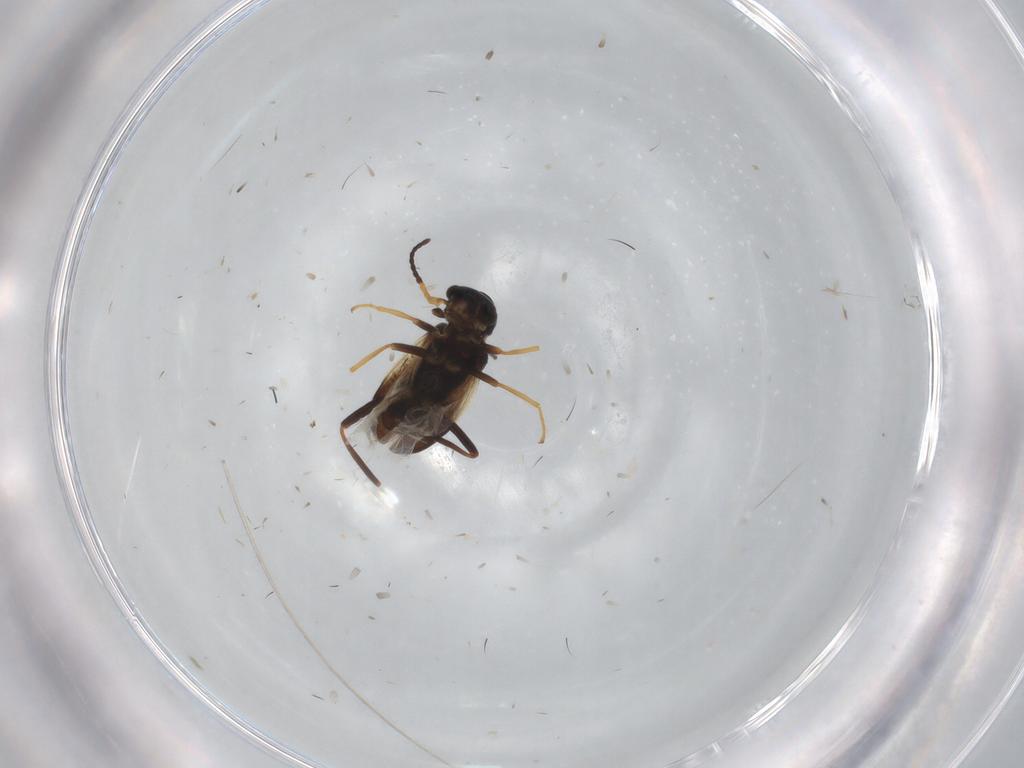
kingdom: Animalia
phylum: Arthropoda
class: Insecta
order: Coleoptera
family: Melyridae
